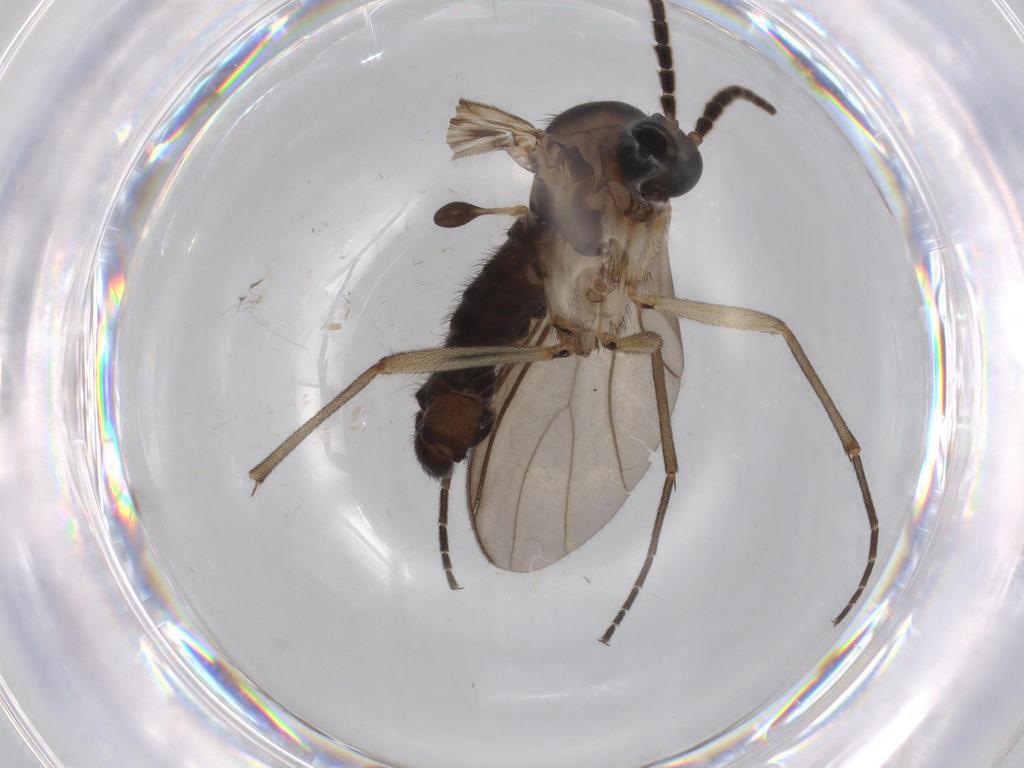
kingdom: Animalia
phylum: Arthropoda
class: Insecta
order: Diptera
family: Sciaridae
